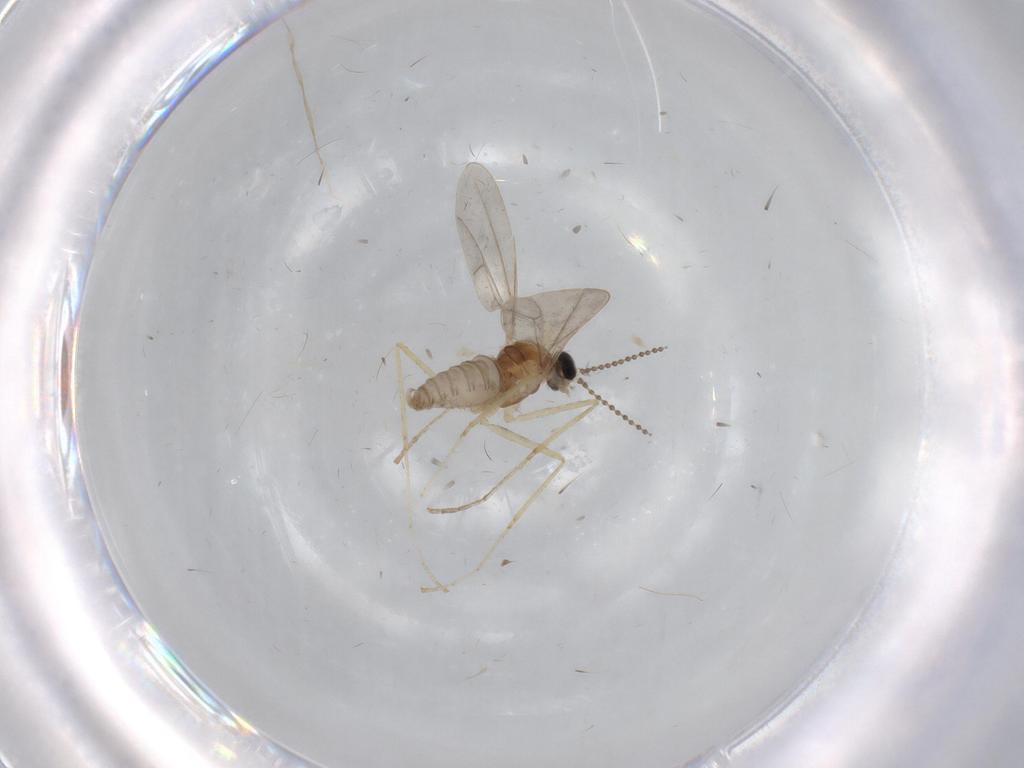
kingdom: Animalia
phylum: Arthropoda
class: Insecta
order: Diptera
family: Cecidomyiidae
